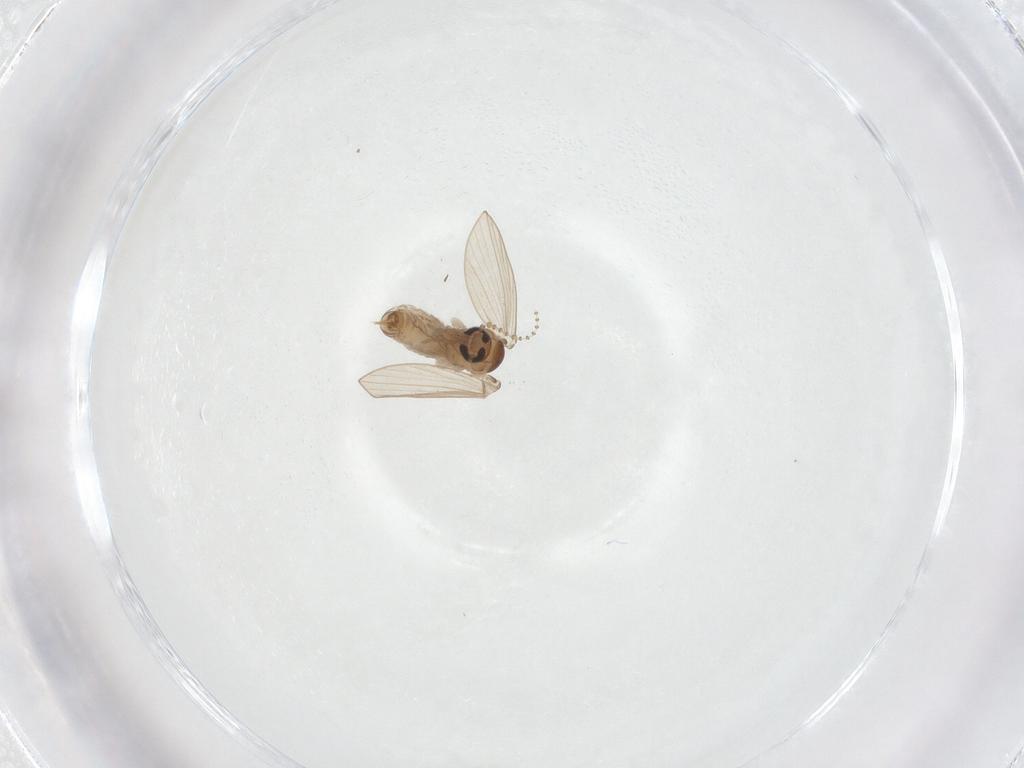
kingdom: Animalia
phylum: Arthropoda
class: Insecta
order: Diptera
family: Psychodidae
